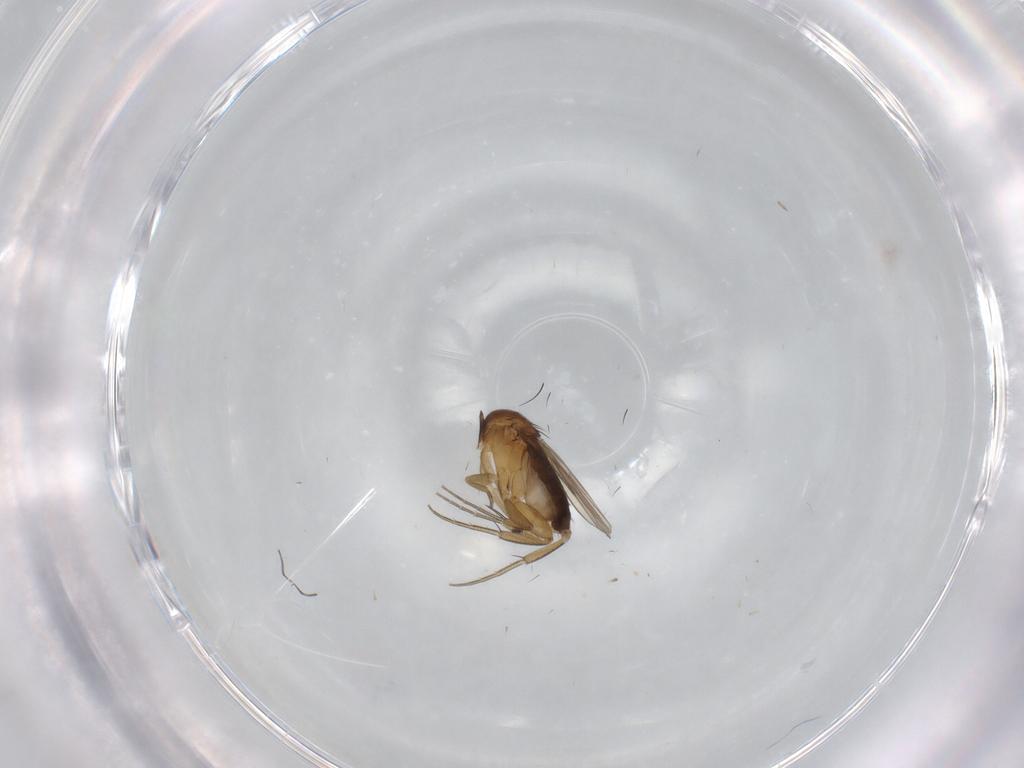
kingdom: Animalia
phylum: Arthropoda
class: Insecta
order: Diptera
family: Phoridae
